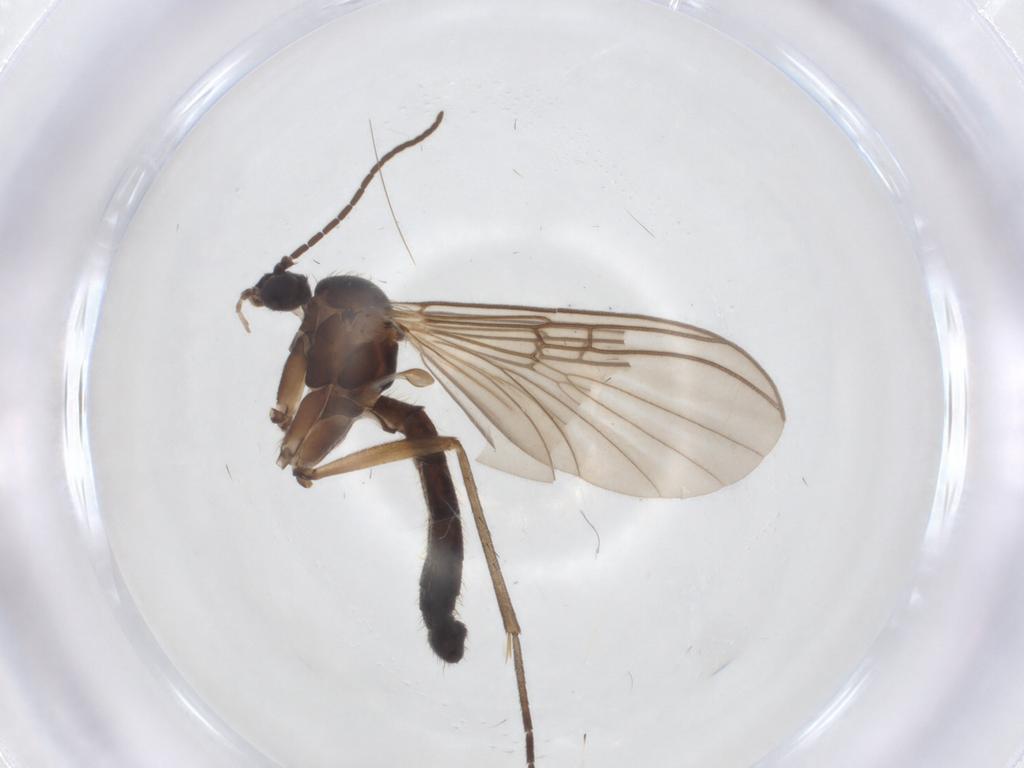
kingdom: Animalia
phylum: Arthropoda
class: Insecta
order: Diptera
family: Mycetophilidae
